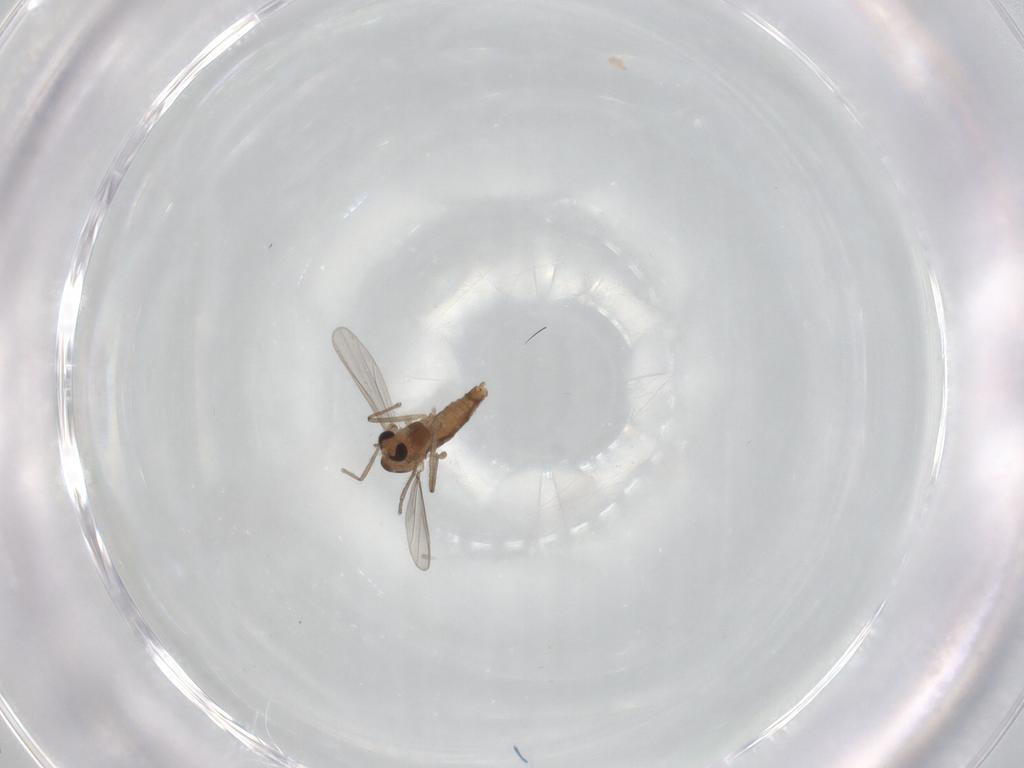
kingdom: Animalia
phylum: Arthropoda
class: Insecta
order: Diptera
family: Chironomidae
